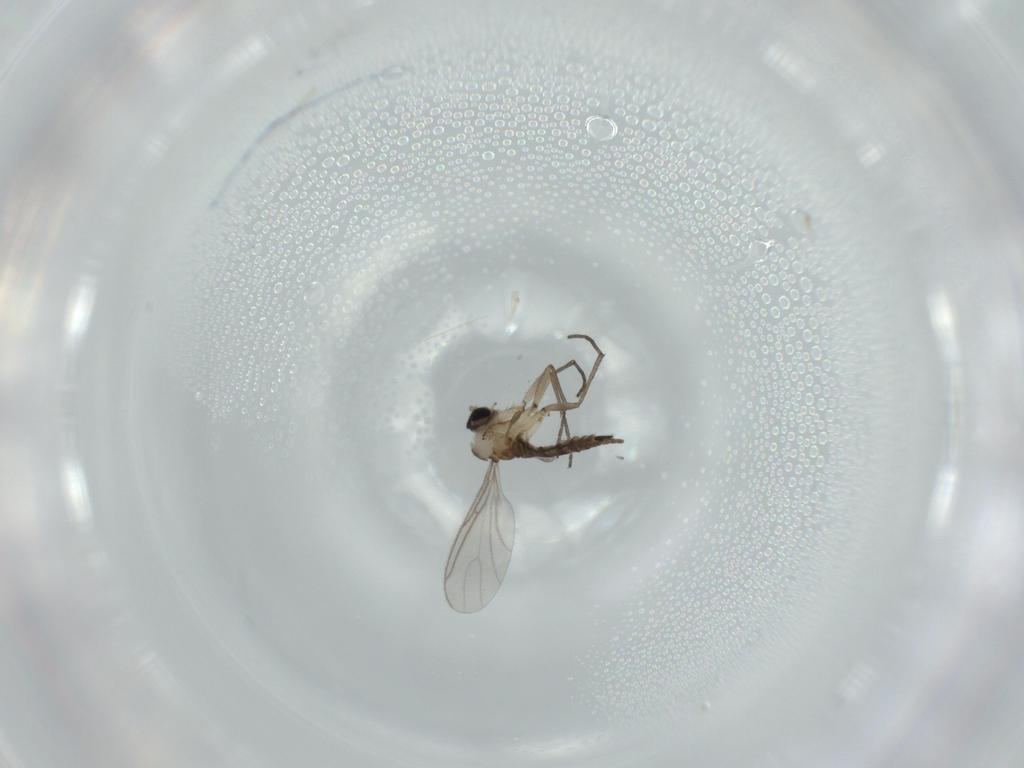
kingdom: Animalia
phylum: Arthropoda
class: Insecta
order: Diptera
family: Sciaridae
